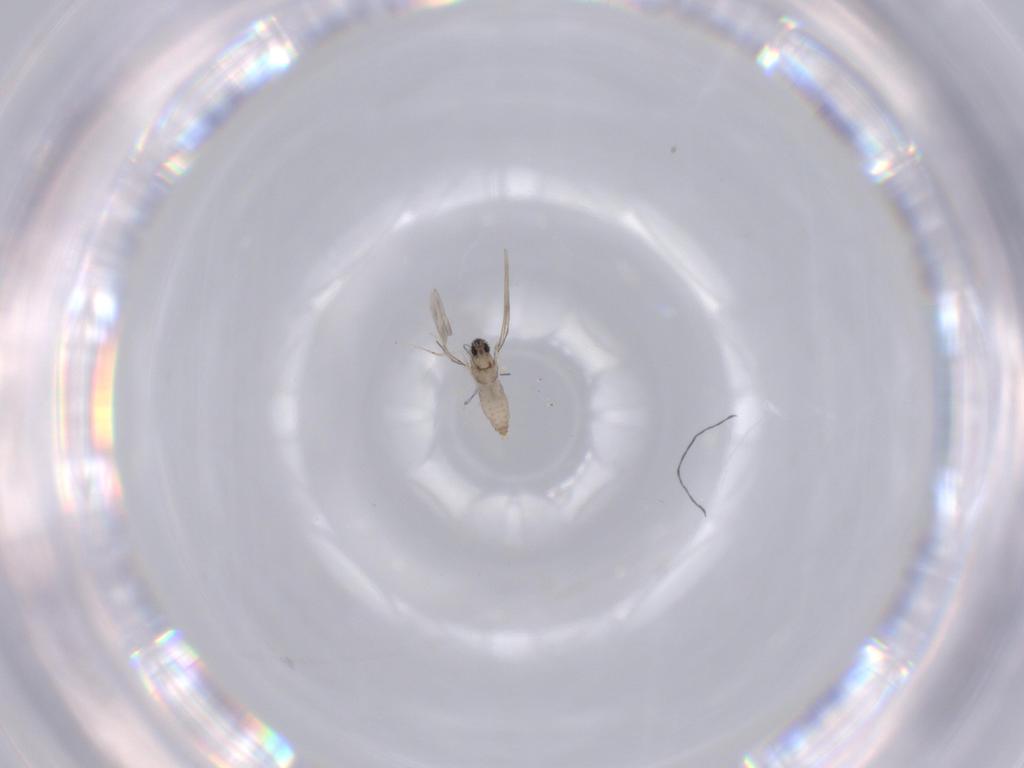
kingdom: Animalia
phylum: Arthropoda
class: Insecta
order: Diptera
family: Cecidomyiidae
